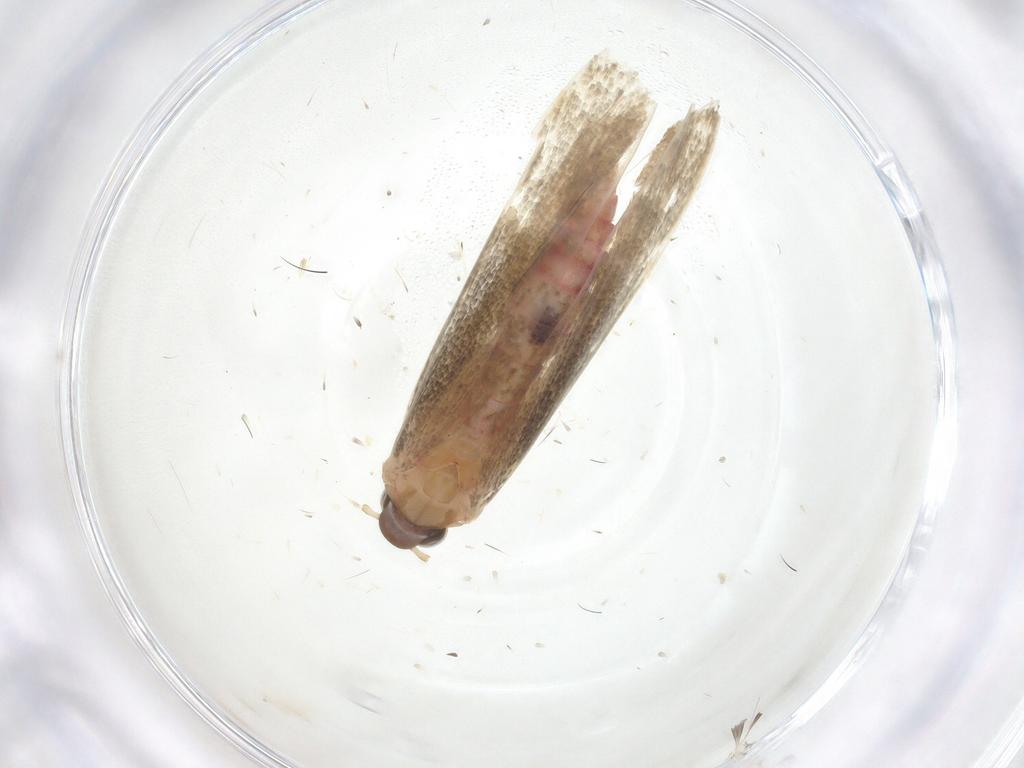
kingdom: Animalia
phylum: Arthropoda
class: Insecta
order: Lepidoptera
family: Crambidae
